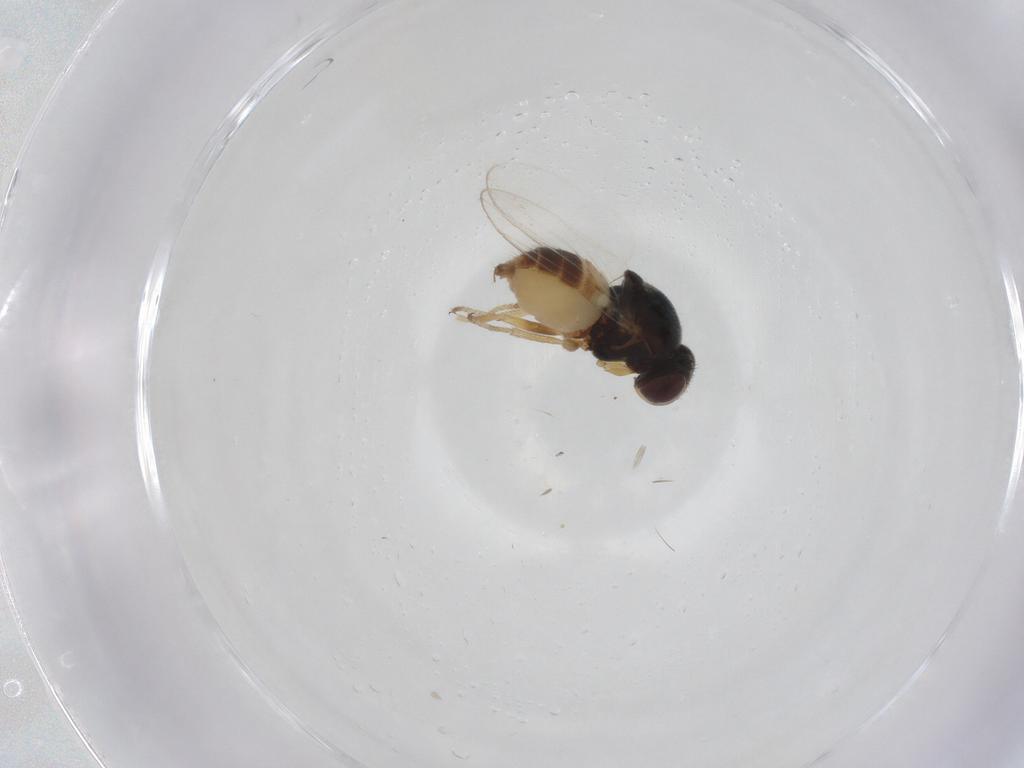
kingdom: Animalia
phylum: Arthropoda
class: Insecta
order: Diptera
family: Chloropidae
